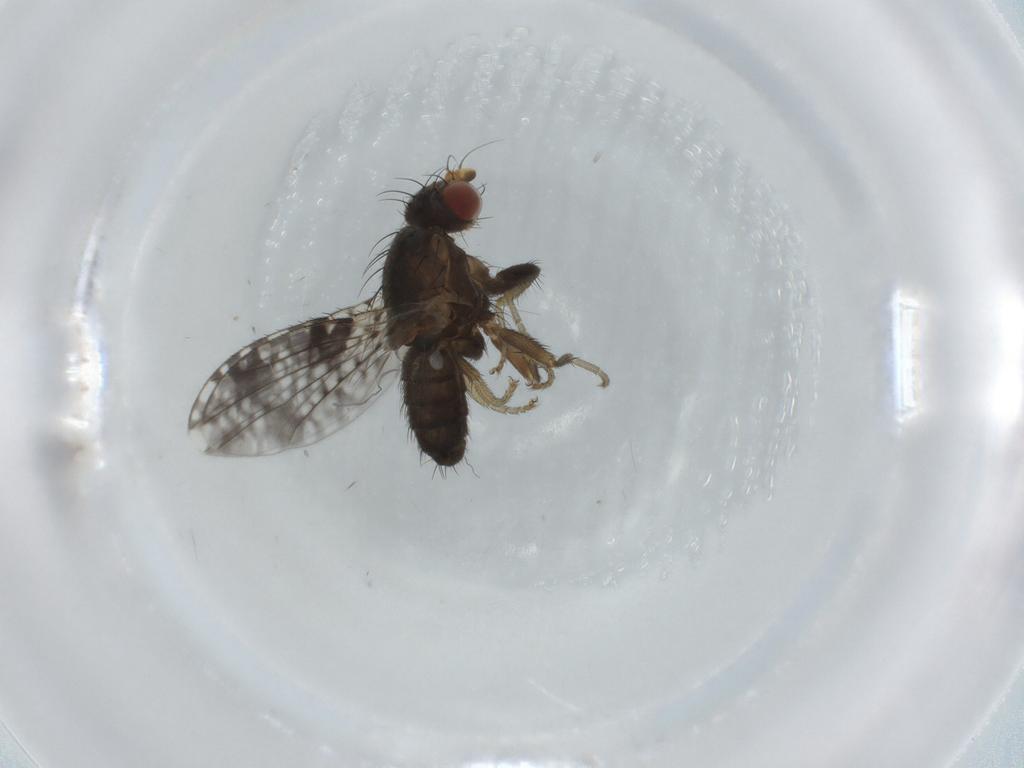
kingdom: Animalia
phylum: Arthropoda
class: Insecta
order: Diptera
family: Tephritidae
